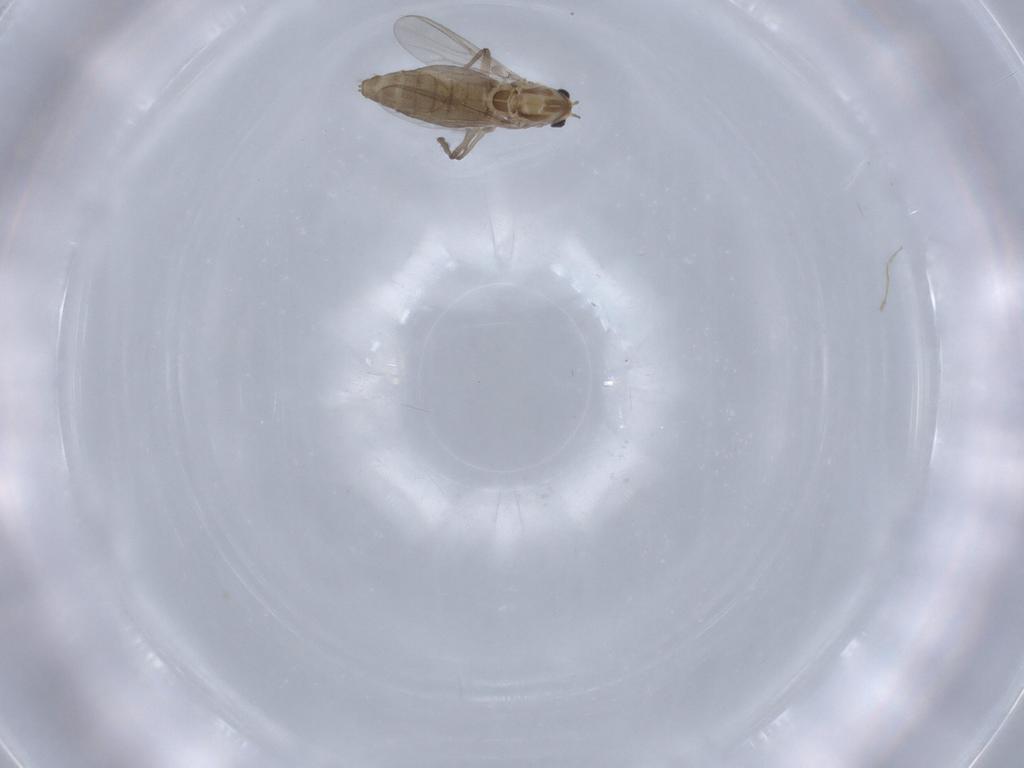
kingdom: Animalia
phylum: Arthropoda
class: Insecta
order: Diptera
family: Chironomidae
